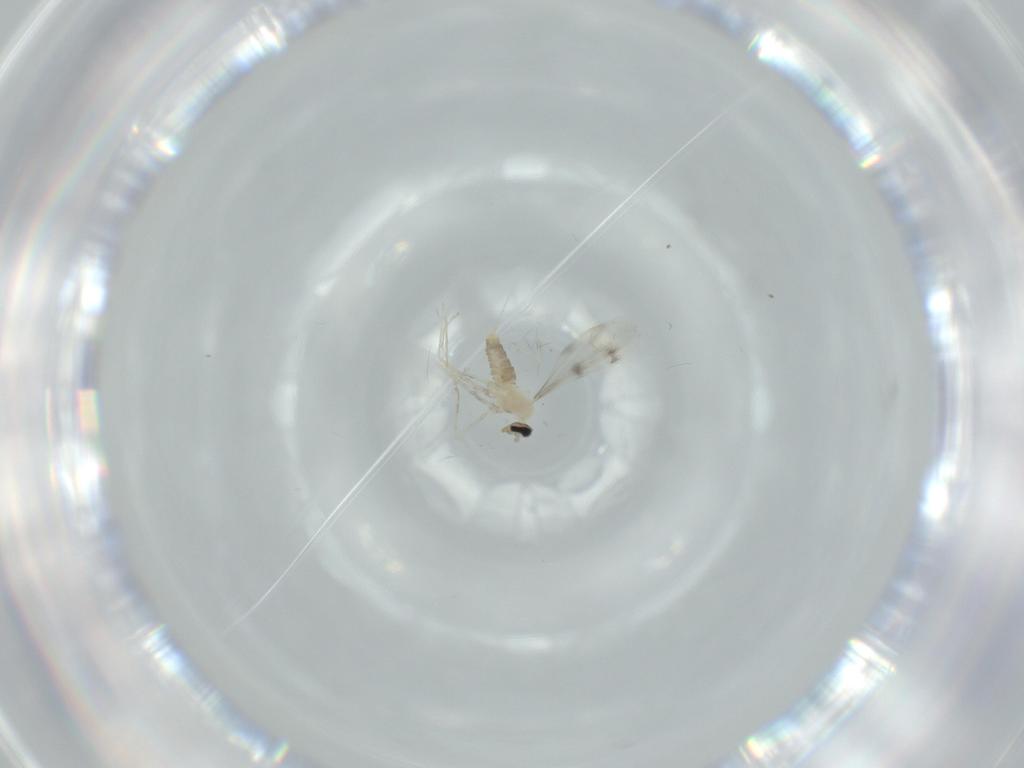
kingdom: Animalia
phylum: Arthropoda
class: Insecta
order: Diptera
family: Cecidomyiidae
